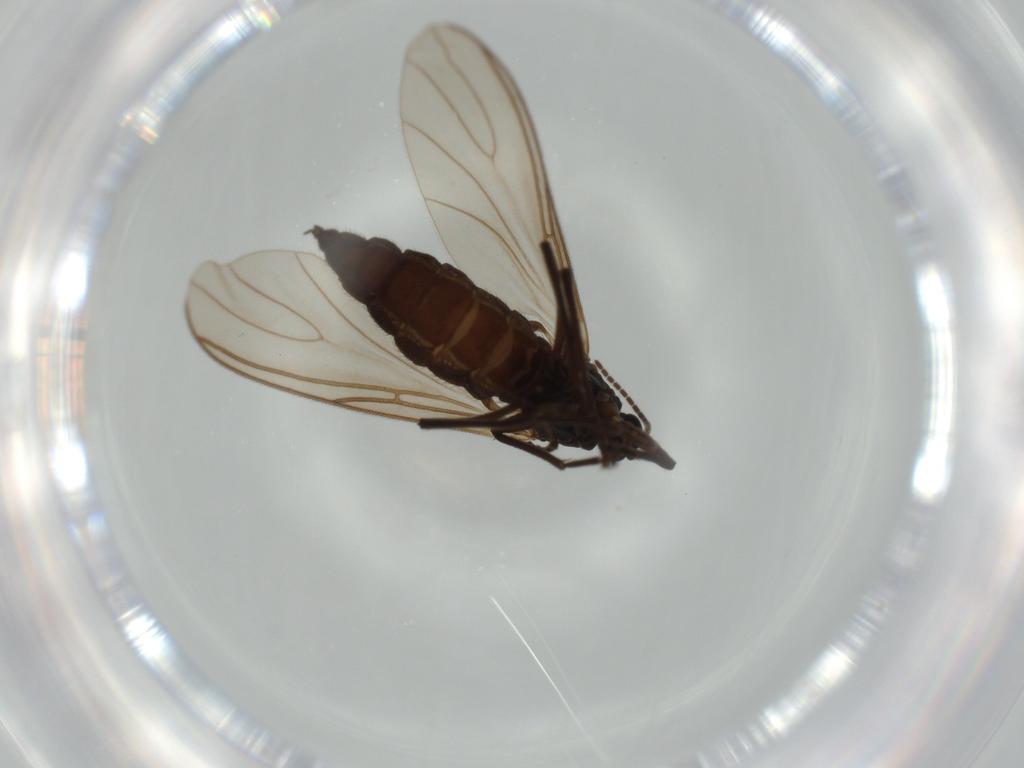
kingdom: Animalia
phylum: Arthropoda
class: Insecta
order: Diptera
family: Sciaridae
